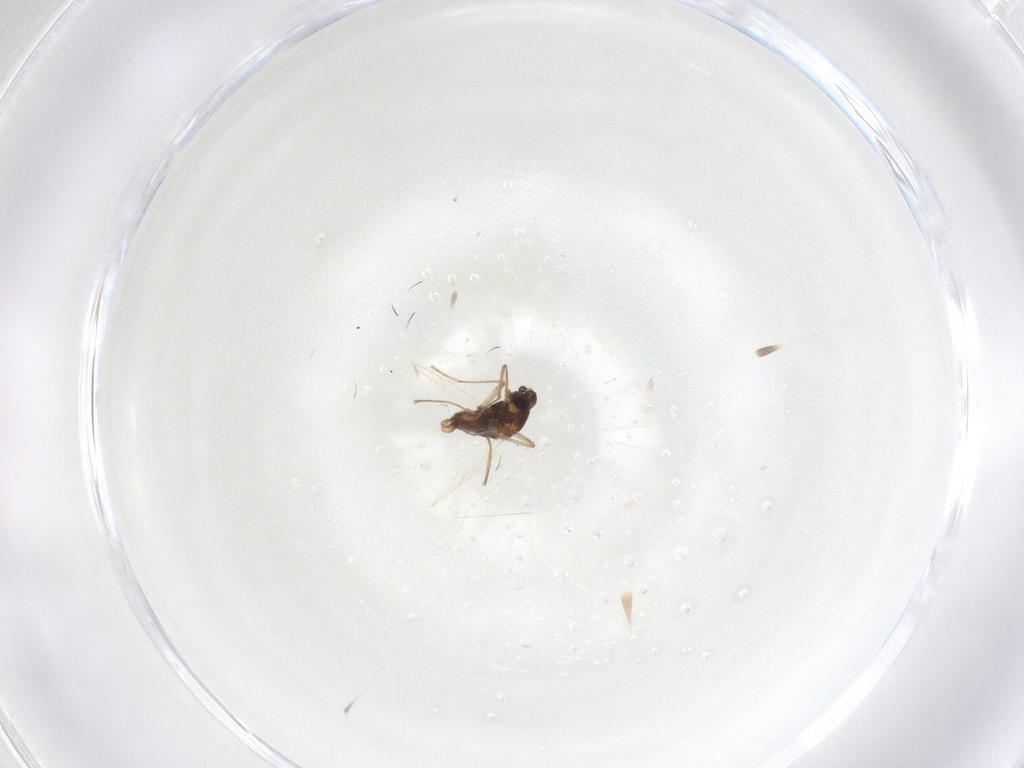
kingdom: Animalia
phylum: Arthropoda
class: Insecta
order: Diptera
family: Cecidomyiidae
